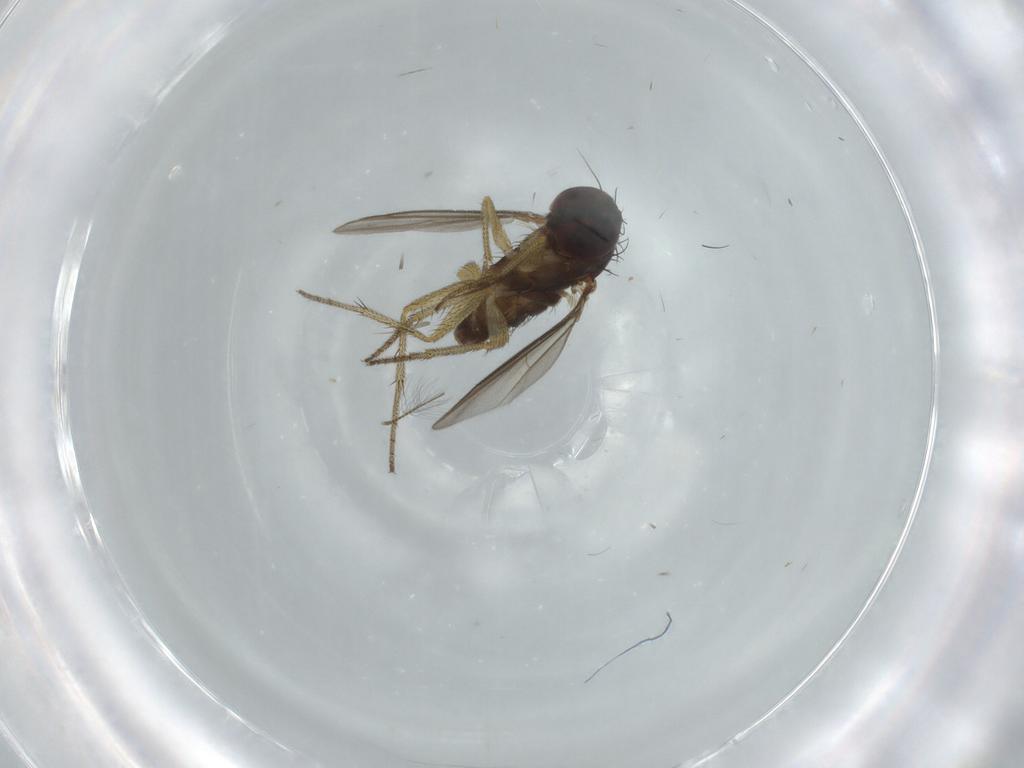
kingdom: Animalia
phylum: Arthropoda
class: Insecta
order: Diptera
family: Dolichopodidae
